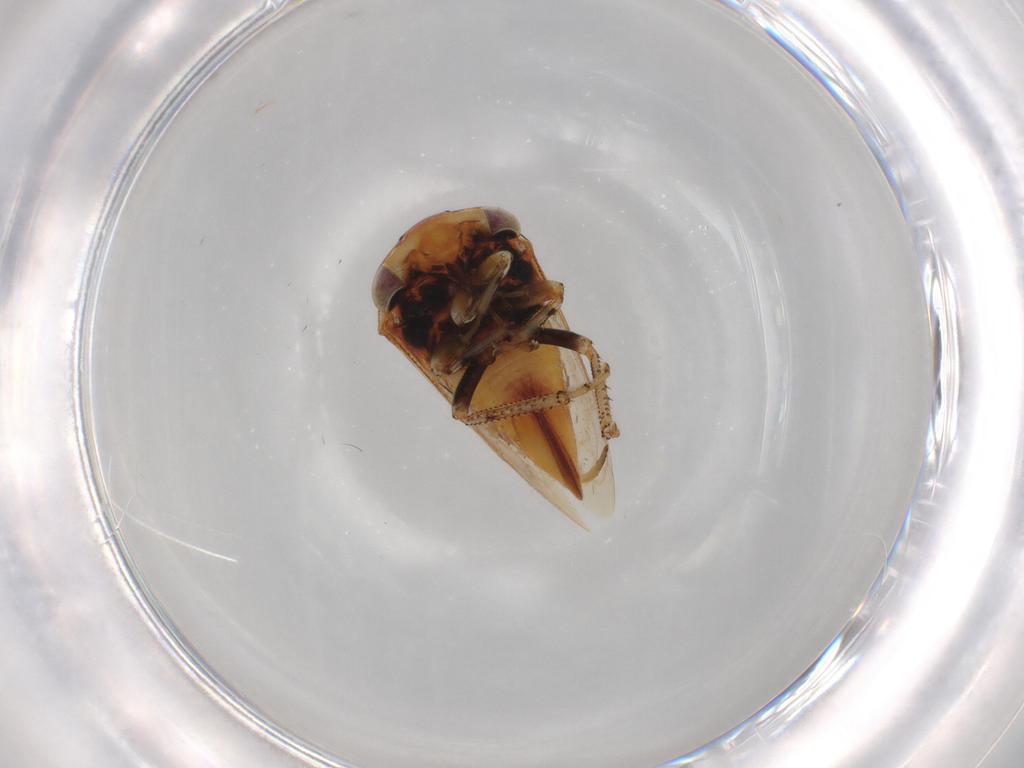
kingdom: Animalia
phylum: Arthropoda
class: Insecta
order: Hemiptera
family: Membracidae
